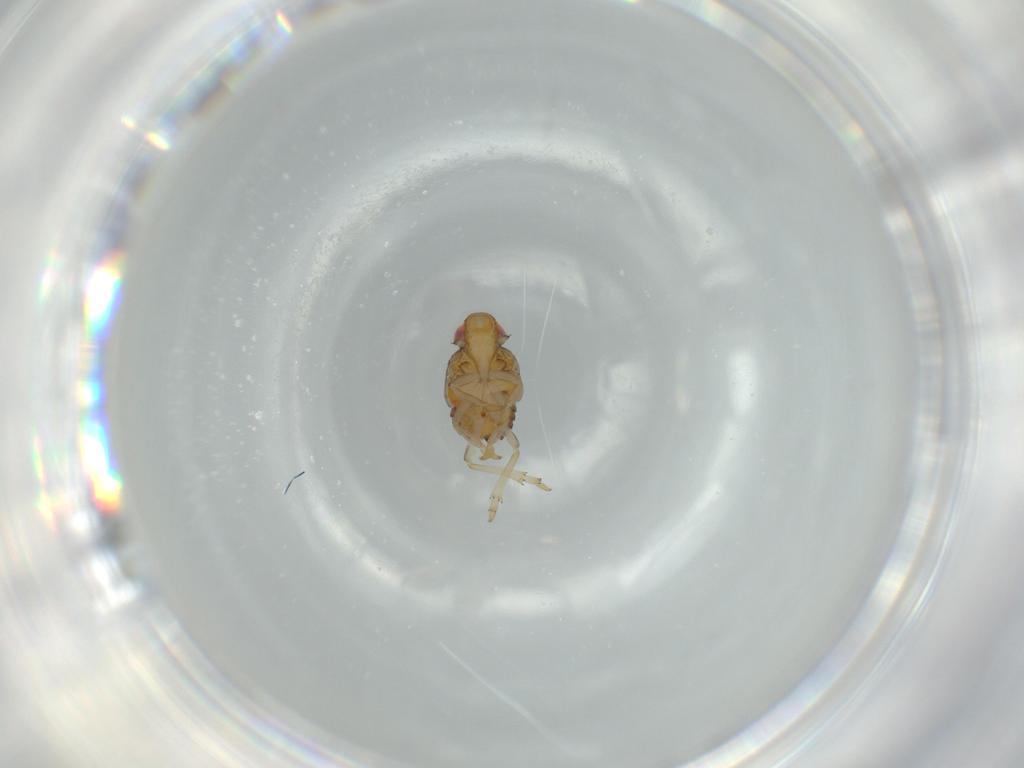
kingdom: Animalia
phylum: Arthropoda
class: Insecta
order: Hemiptera
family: Issidae
